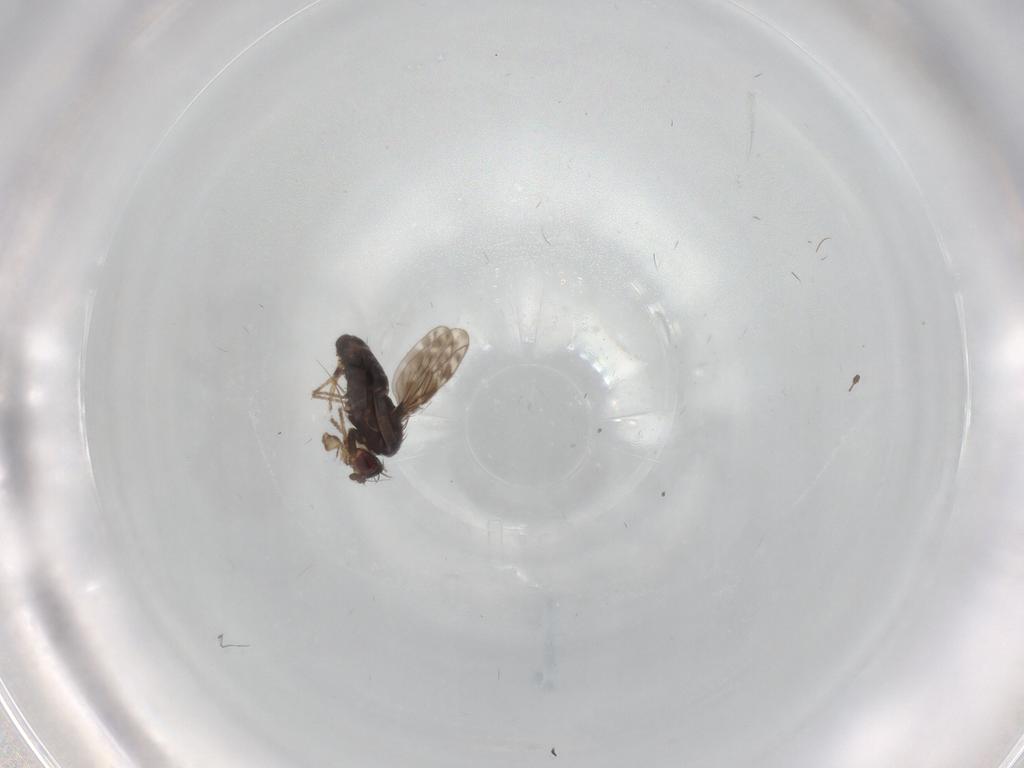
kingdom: Animalia
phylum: Arthropoda
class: Insecta
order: Diptera
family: Sphaeroceridae
